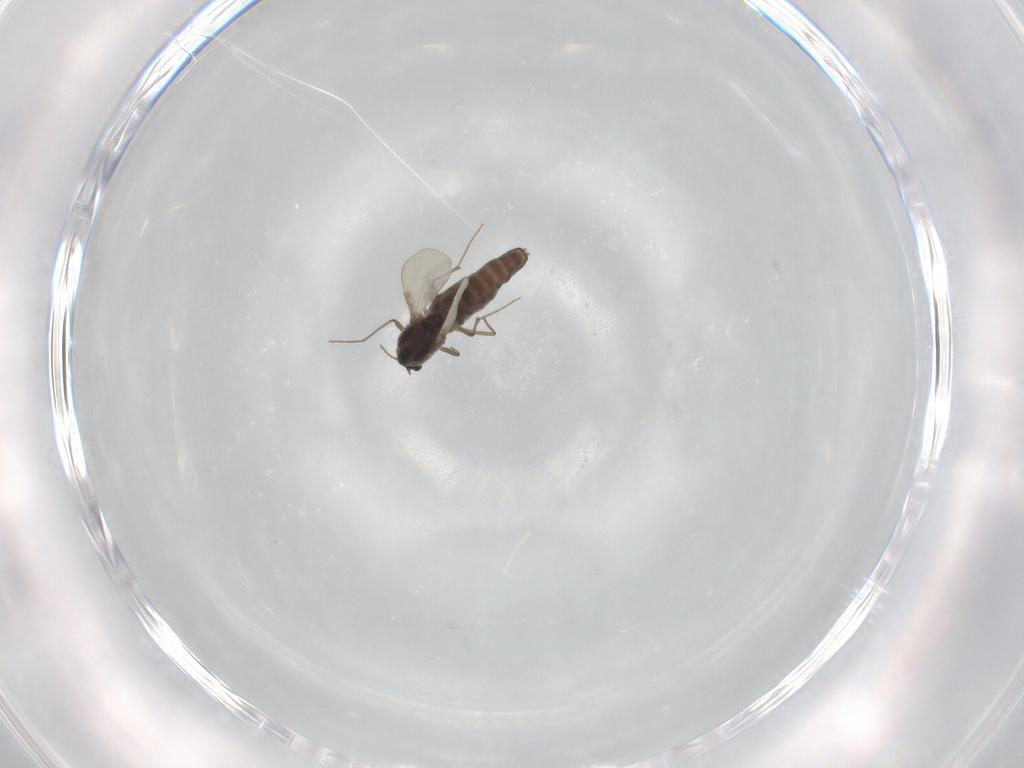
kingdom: Animalia
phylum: Arthropoda
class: Insecta
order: Diptera
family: Chironomidae
